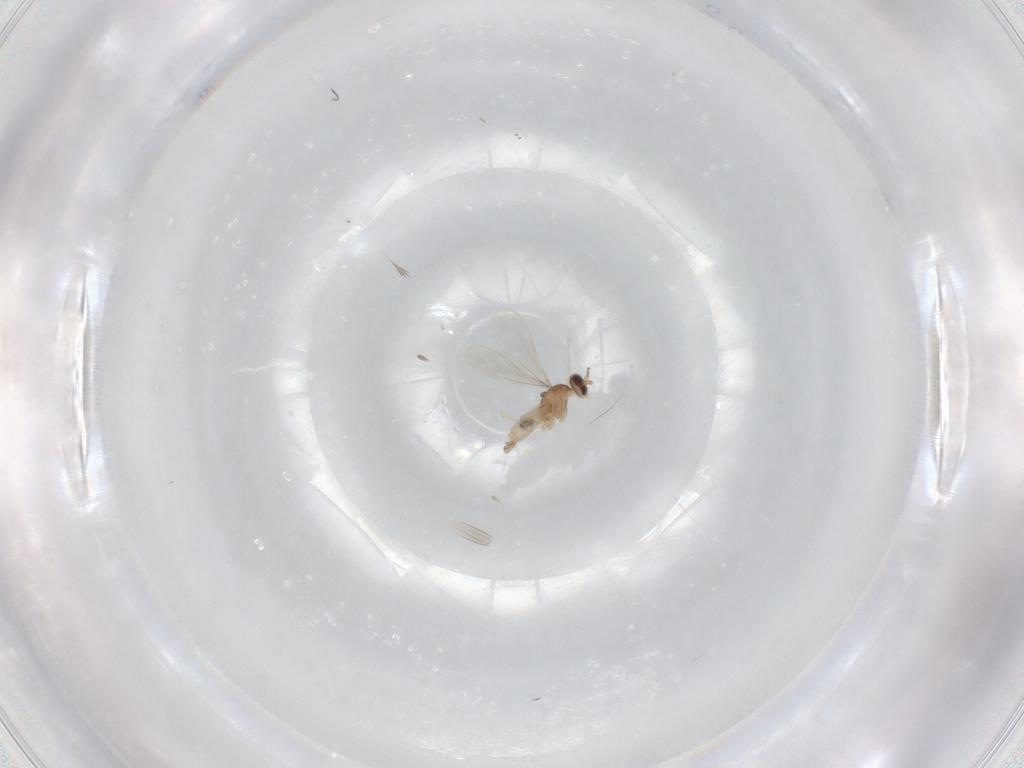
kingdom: Animalia
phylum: Arthropoda
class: Insecta
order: Diptera
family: Cecidomyiidae
